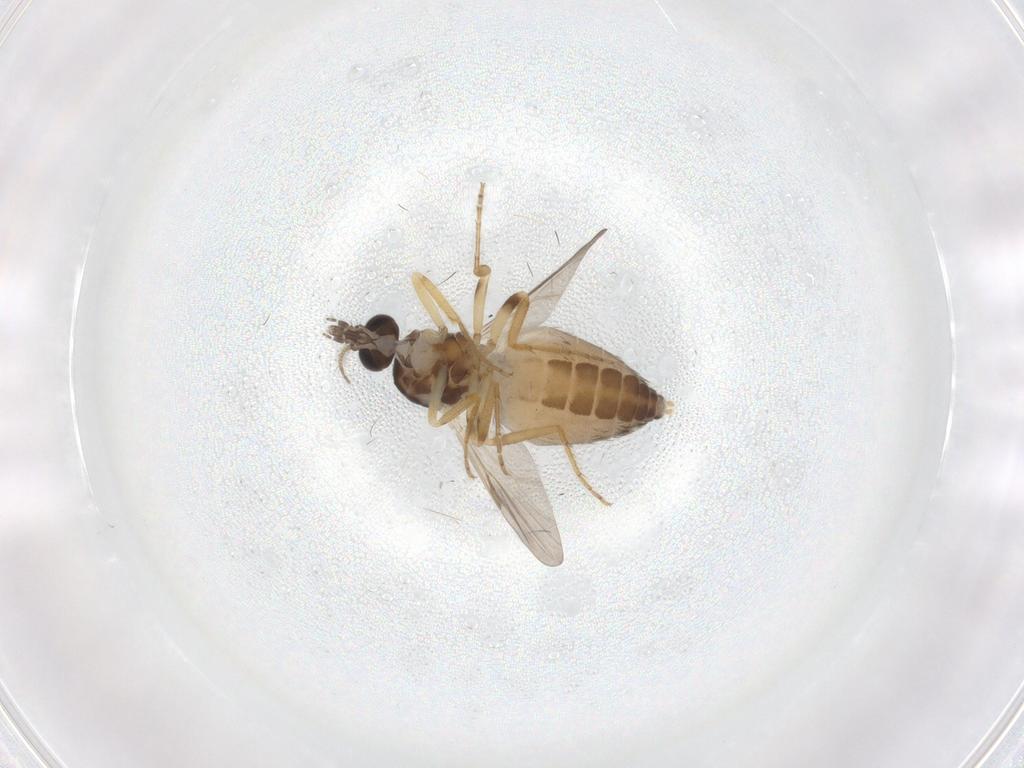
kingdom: Animalia
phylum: Arthropoda
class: Insecta
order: Diptera
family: Ceratopogonidae
